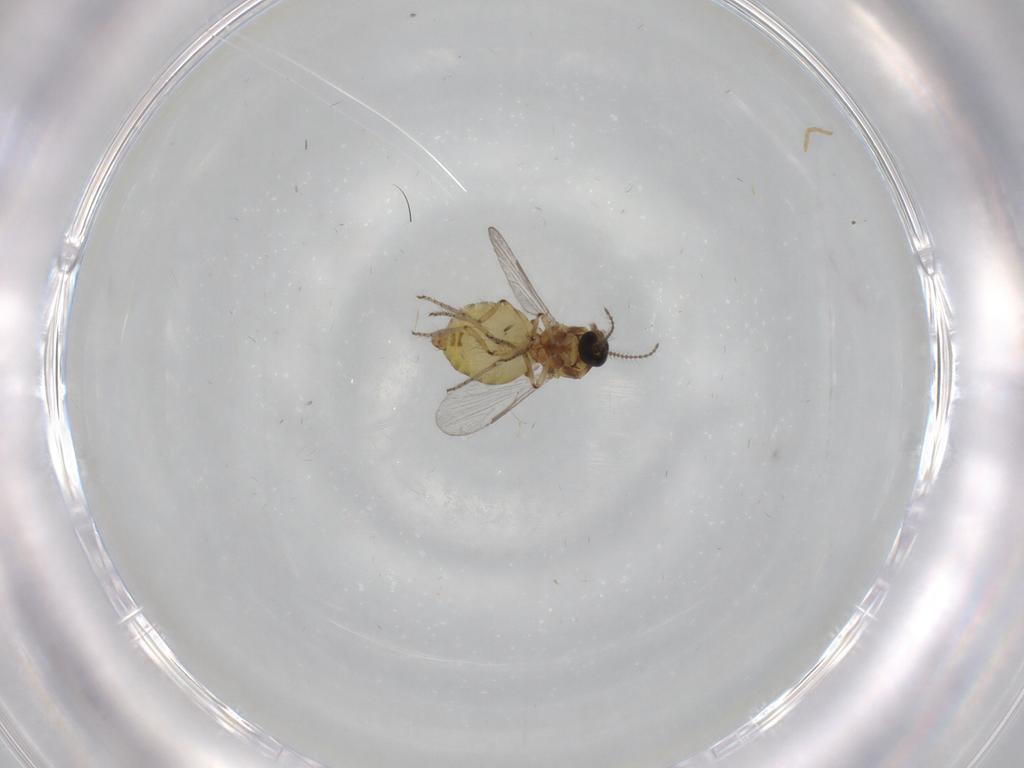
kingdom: Animalia
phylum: Arthropoda
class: Insecta
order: Diptera
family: Ceratopogonidae
